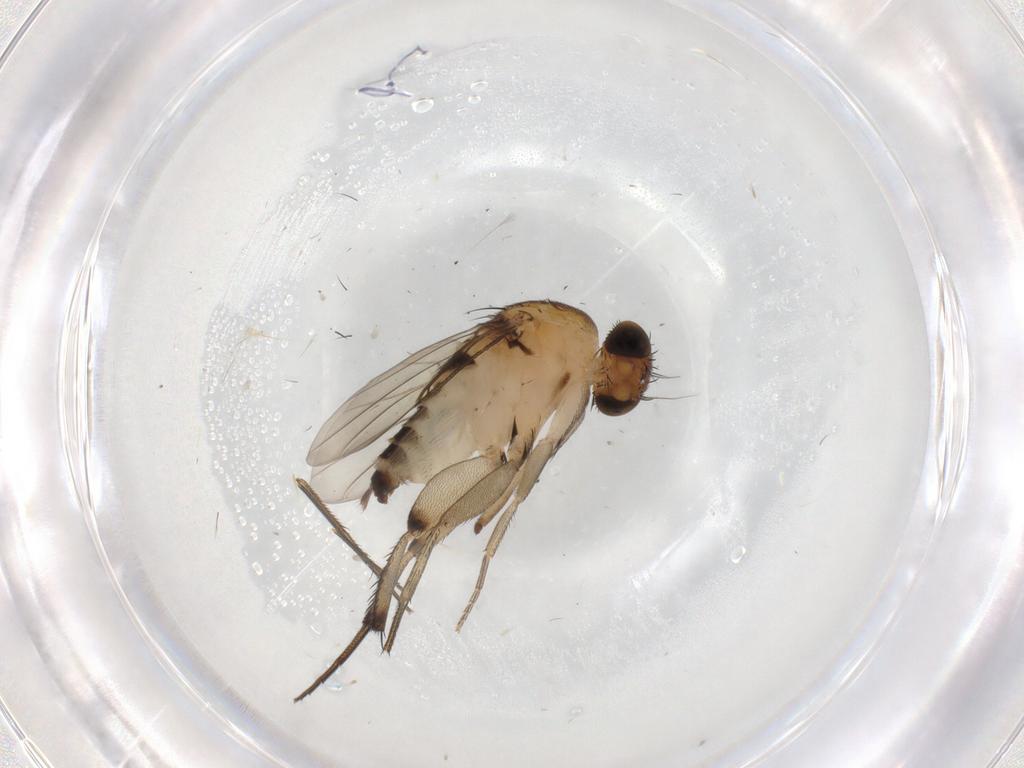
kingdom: Animalia
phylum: Arthropoda
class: Insecta
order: Diptera
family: Phoridae
